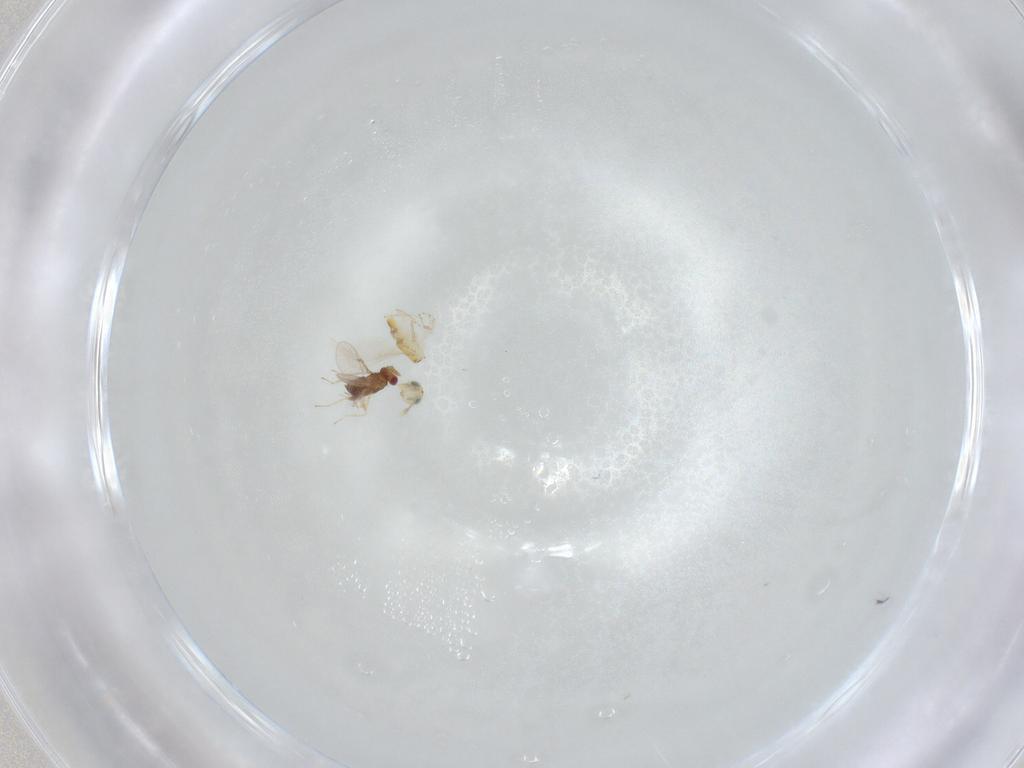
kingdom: Animalia
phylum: Arthropoda
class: Insecta
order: Hymenoptera
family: Trichogrammatidae
